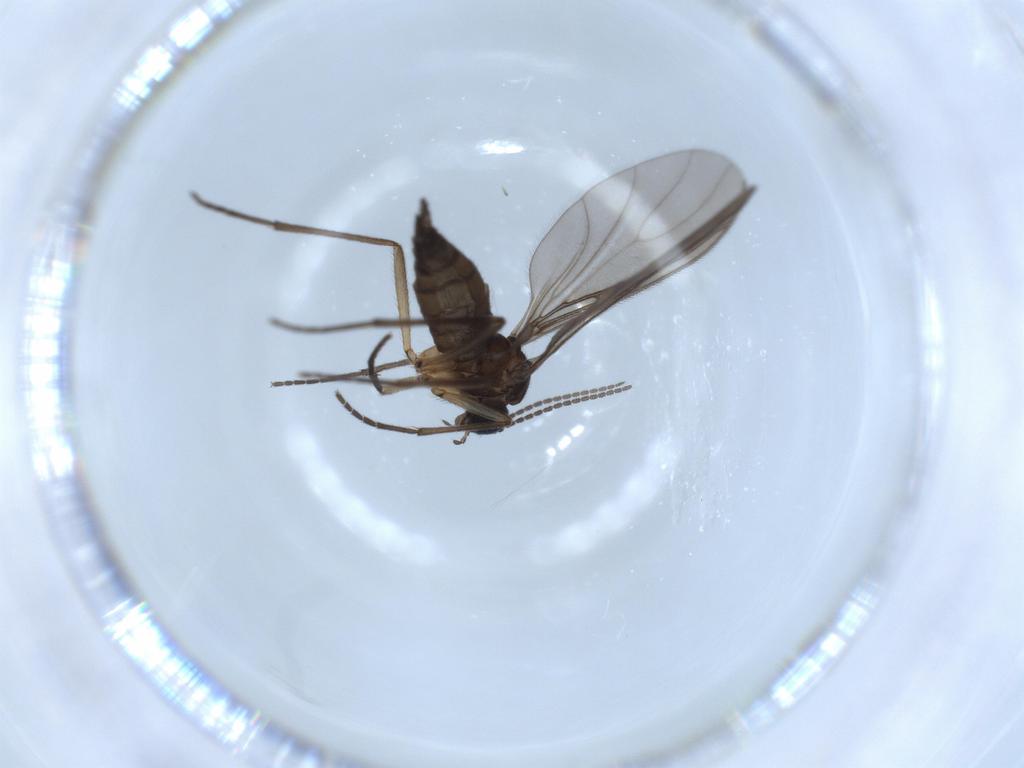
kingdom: Animalia
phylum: Arthropoda
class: Insecta
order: Diptera
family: Sciaridae
